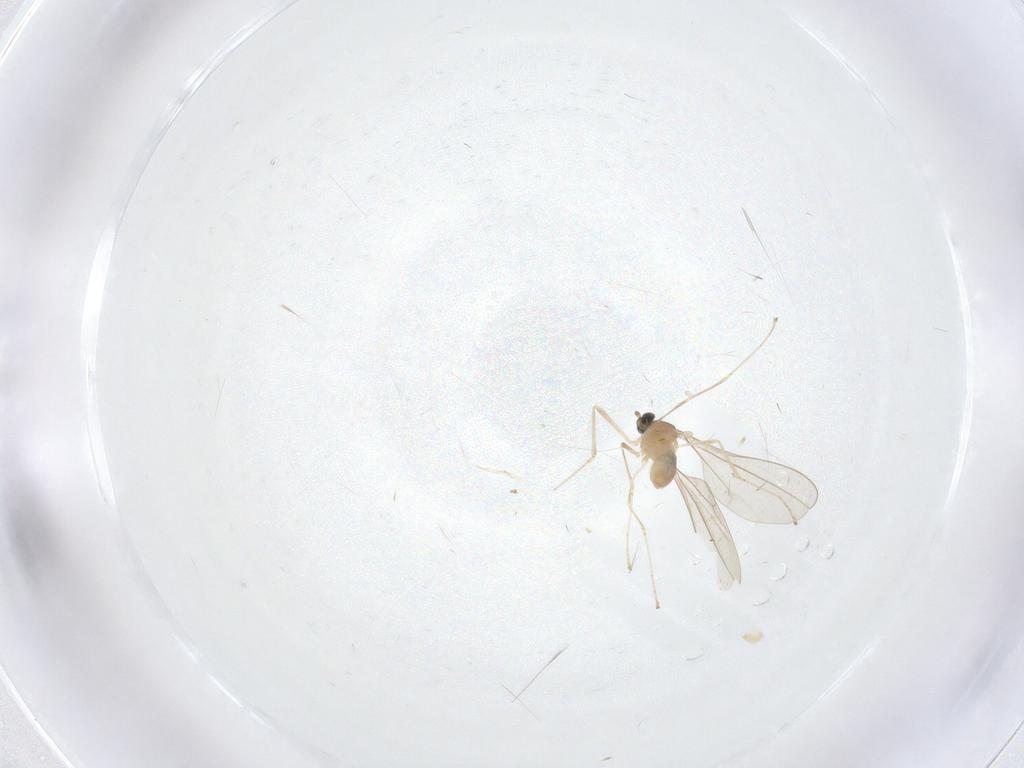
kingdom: Animalia
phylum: Arthropoda
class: Insecta
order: Diptera
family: Cecidomyiidae
